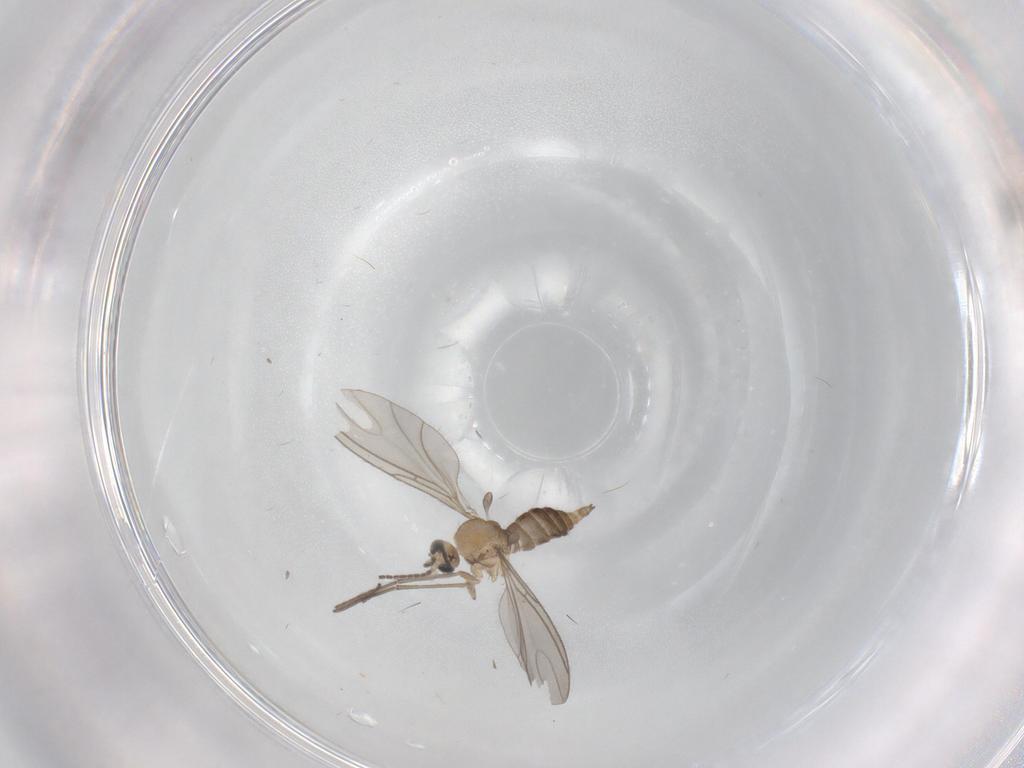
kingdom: Animalia
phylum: Arthropoda
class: Insecta
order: Diptera
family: Sciaridae
